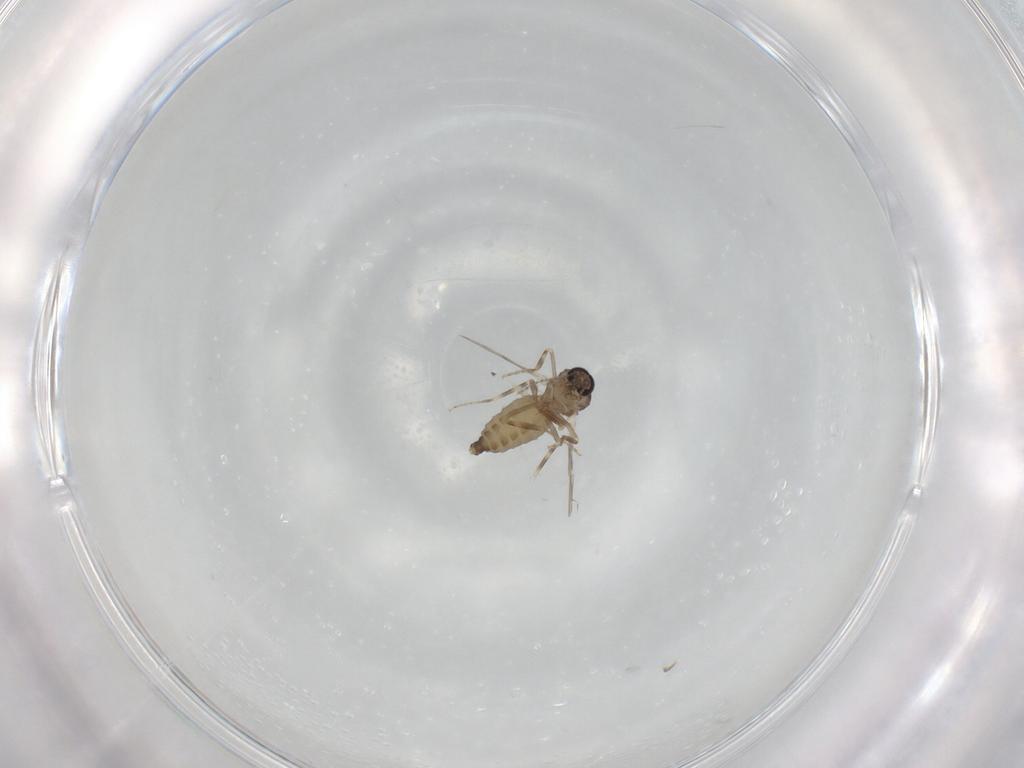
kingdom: Animalia
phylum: Arthropoda
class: Insecta
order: Diptera
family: Ceratopogonidae
